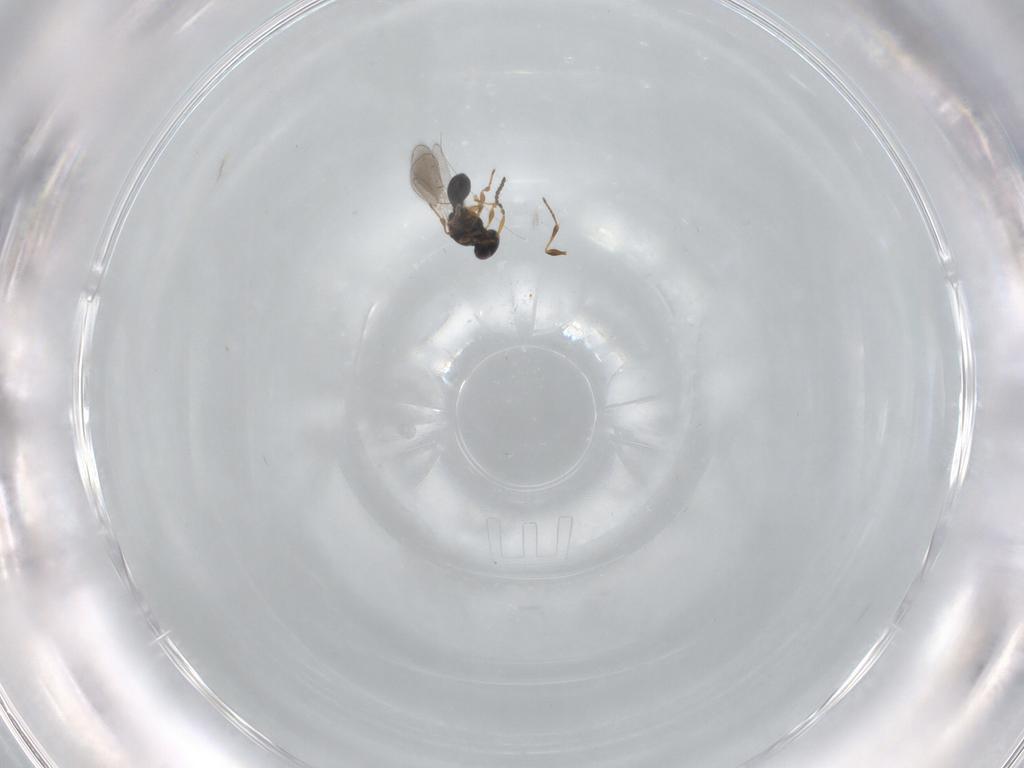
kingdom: Animalia
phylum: Arthropoda
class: Insecta
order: Hymenoptera
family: Platygastridae
